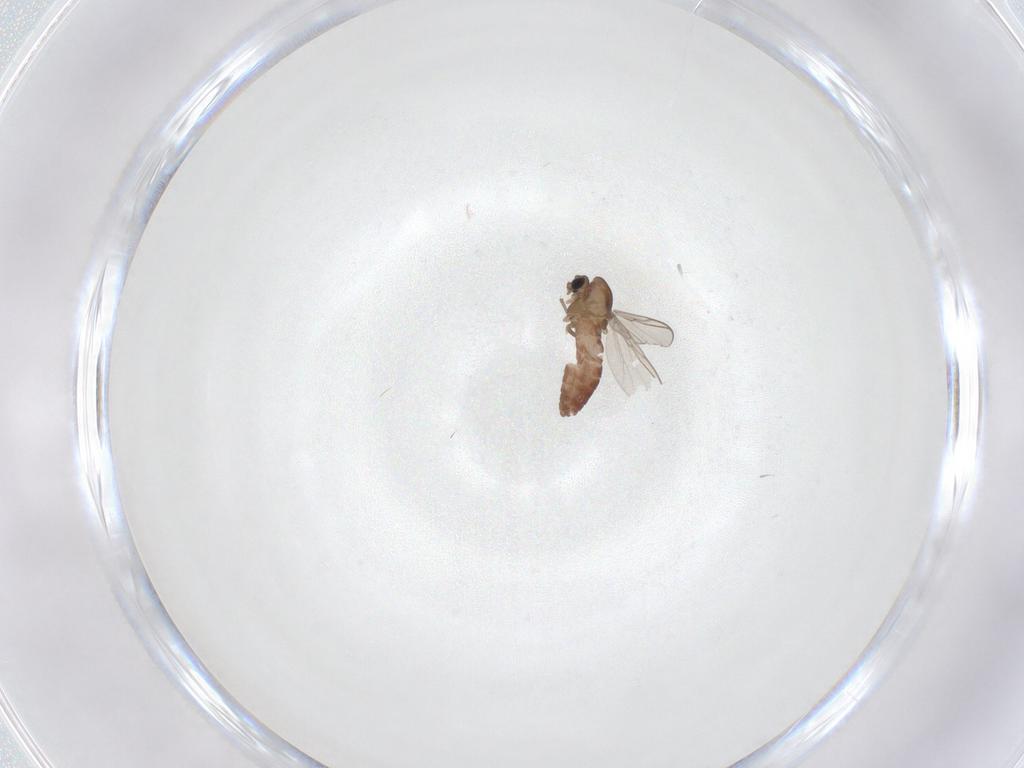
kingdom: Animalia
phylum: Arthropoda
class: Insecta
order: Diptera
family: Chironomidae
